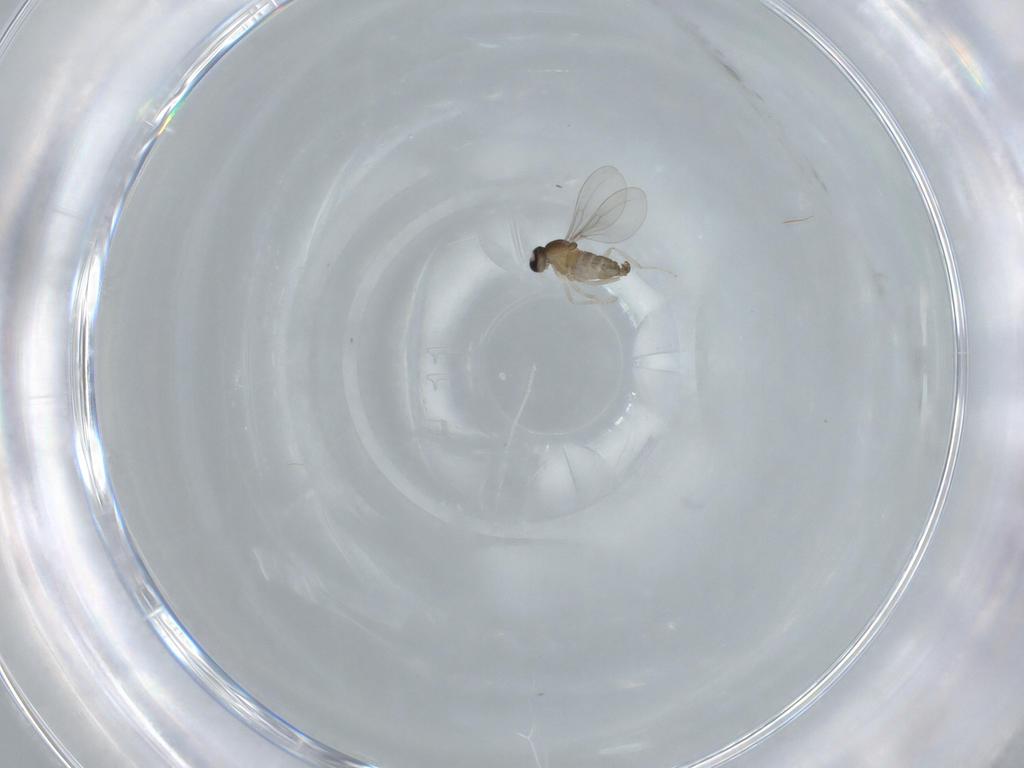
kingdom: Animalia
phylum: Arthropoda
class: Insecta
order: Diptera
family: Cecidomyiidae
